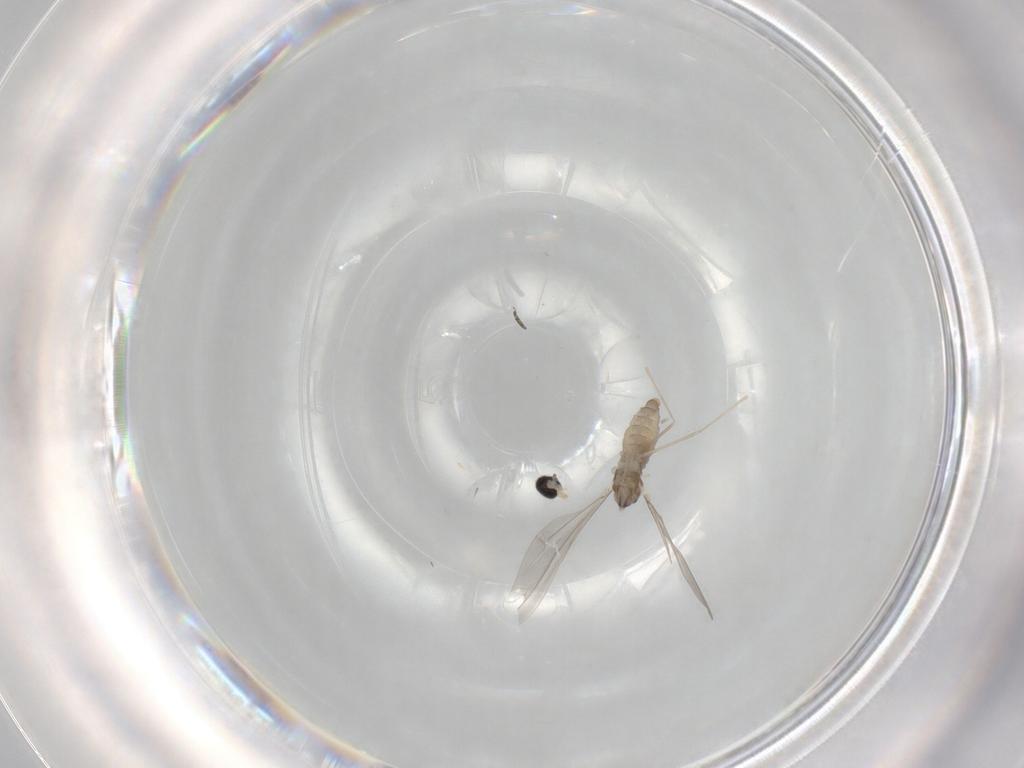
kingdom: Animalia
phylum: Arthropoda
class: Insecta
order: Diptera
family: Cecidomyiidae
